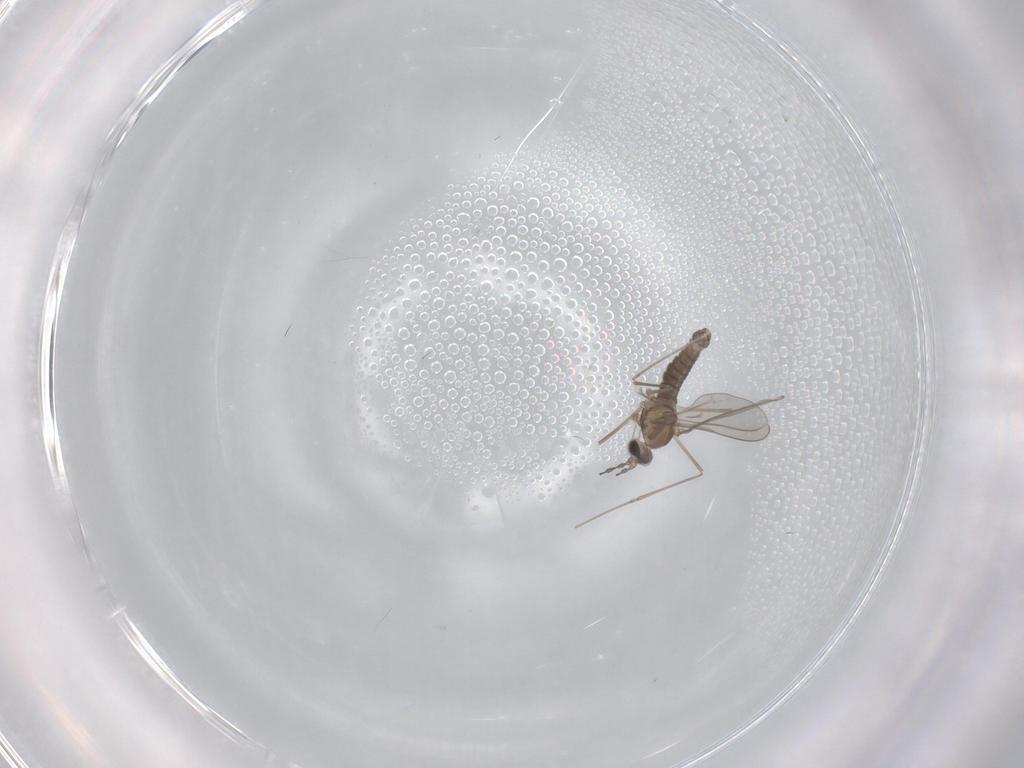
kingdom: Animalia
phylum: Arthropoda
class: Insecta
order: Diptera
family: Cecidomyiidae
